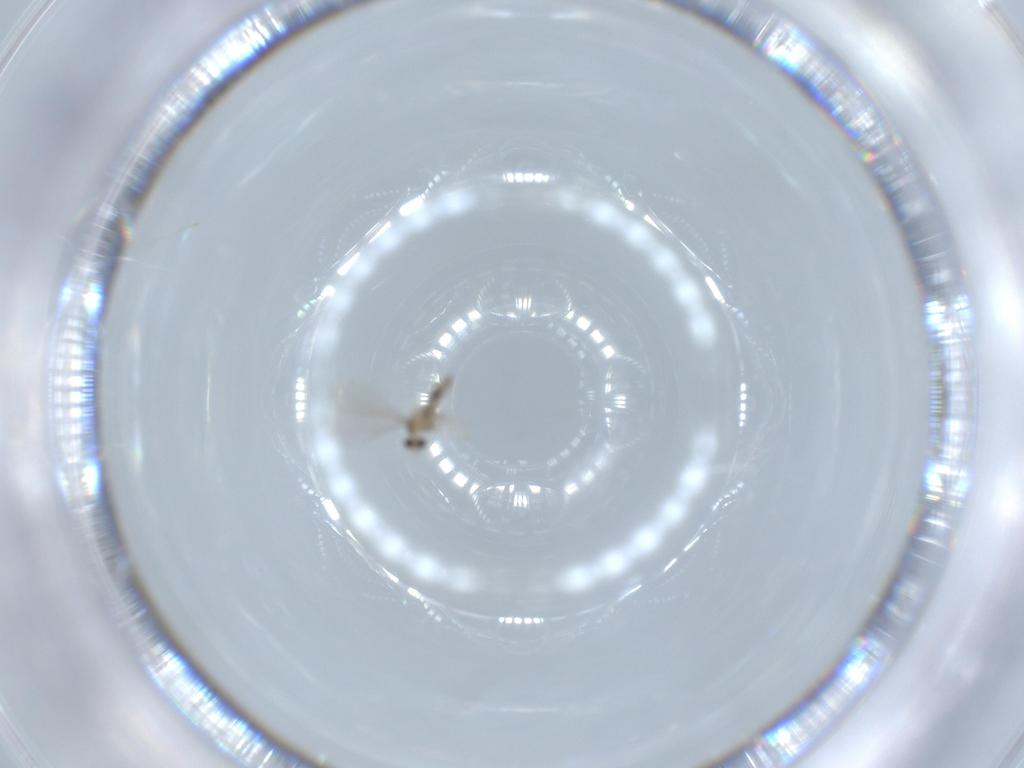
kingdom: Animalia
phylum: Arthropoda
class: Insecta
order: Diptera
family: Cecidomyiidae
